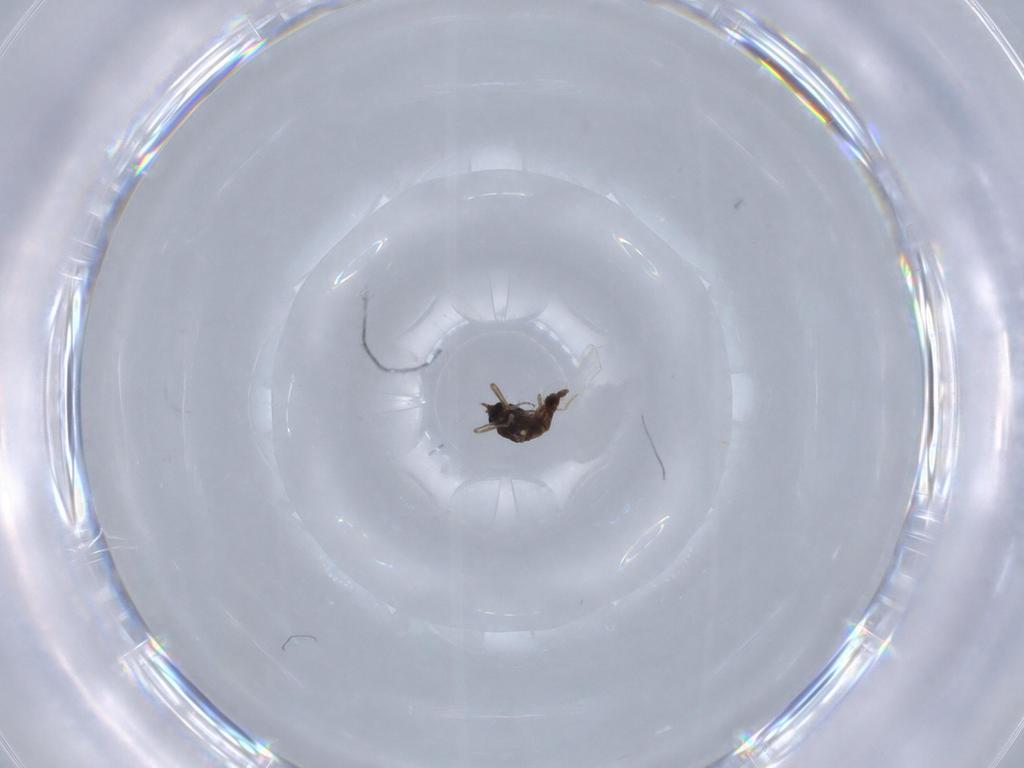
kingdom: Animalia
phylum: Arthropoda
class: Insecta
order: Diptera
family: Ceratopogonidae
